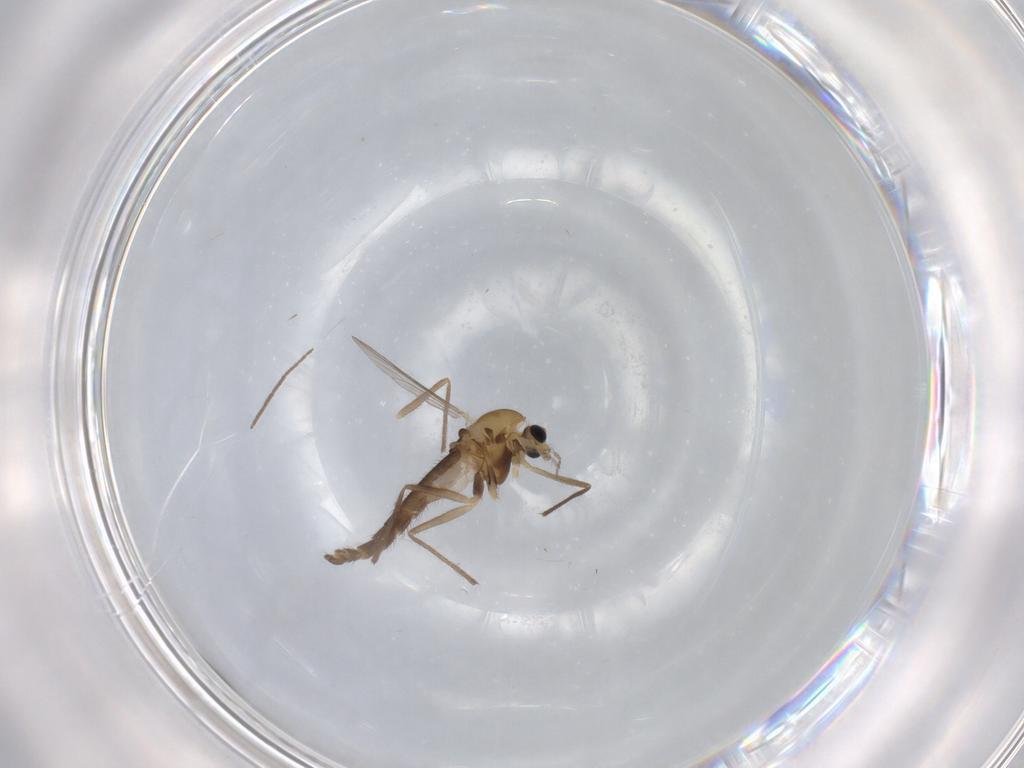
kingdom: Animalia
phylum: Arthropoda
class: Insecta
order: Diptera
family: Chironomidae
